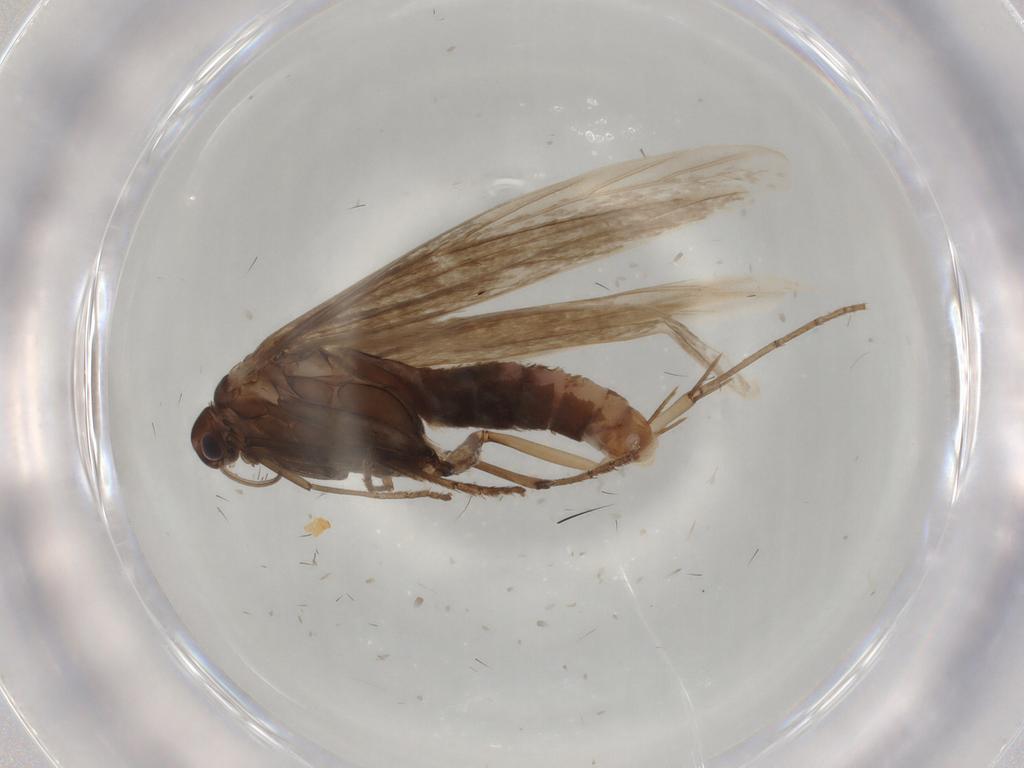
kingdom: Animalia
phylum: Arthropoda
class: Insecta
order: Lepidoptera
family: Coleophoridae
